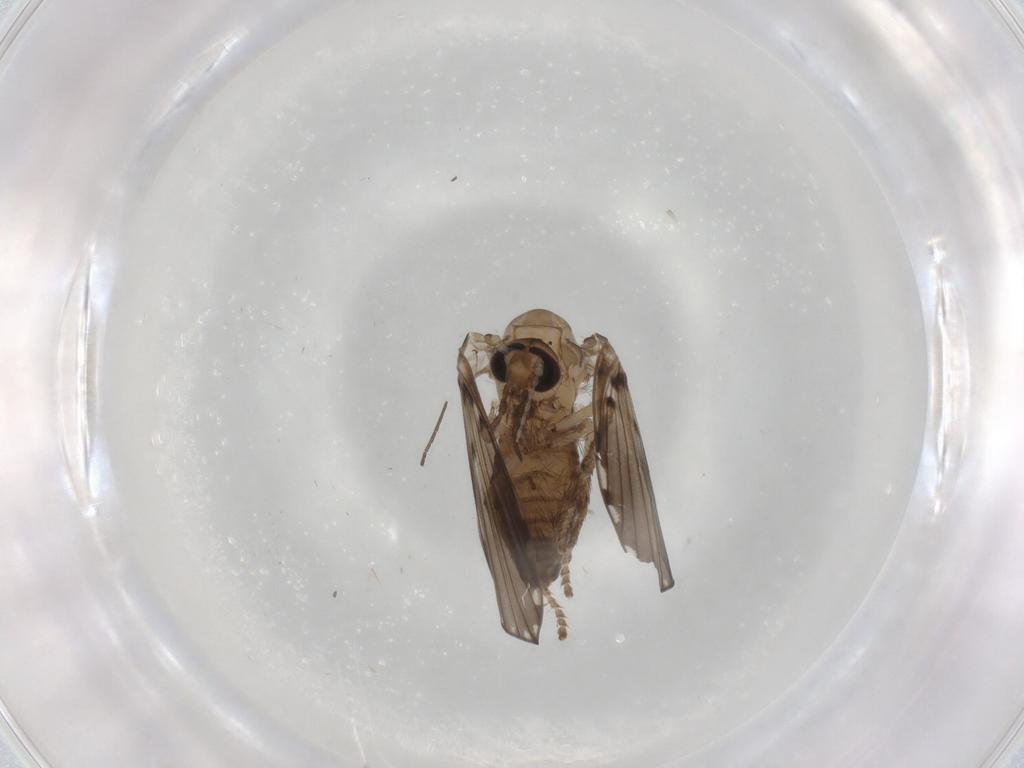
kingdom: Animalia
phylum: Arthropoda
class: Insecta
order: Diptera
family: Psychodidae
